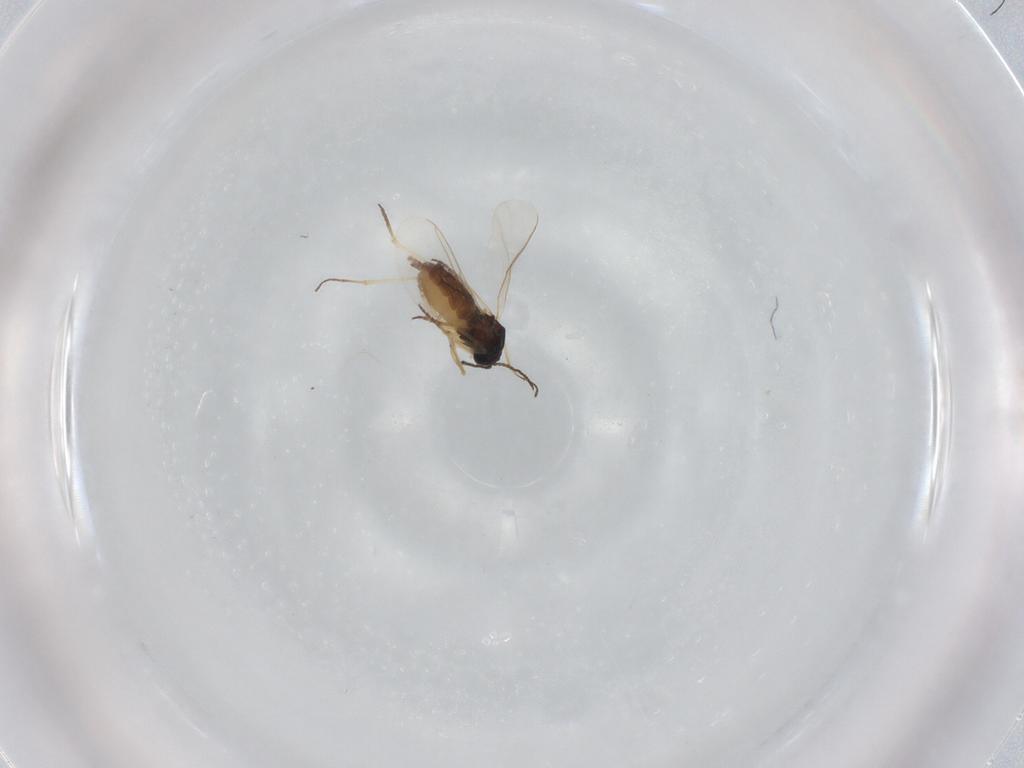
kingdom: Animalia
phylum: Arthropoda
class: Insecta
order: Diptera
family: Sciaridae
